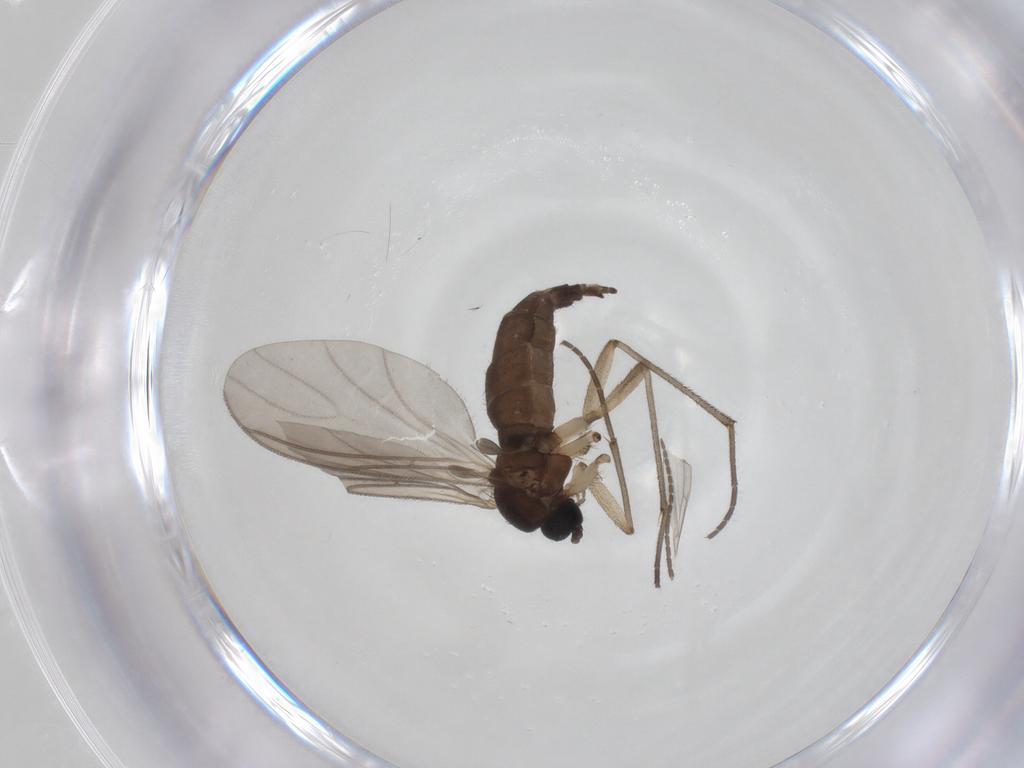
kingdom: Animalia
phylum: Arthropoda
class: Insecta
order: Diptera
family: Sciaridae
